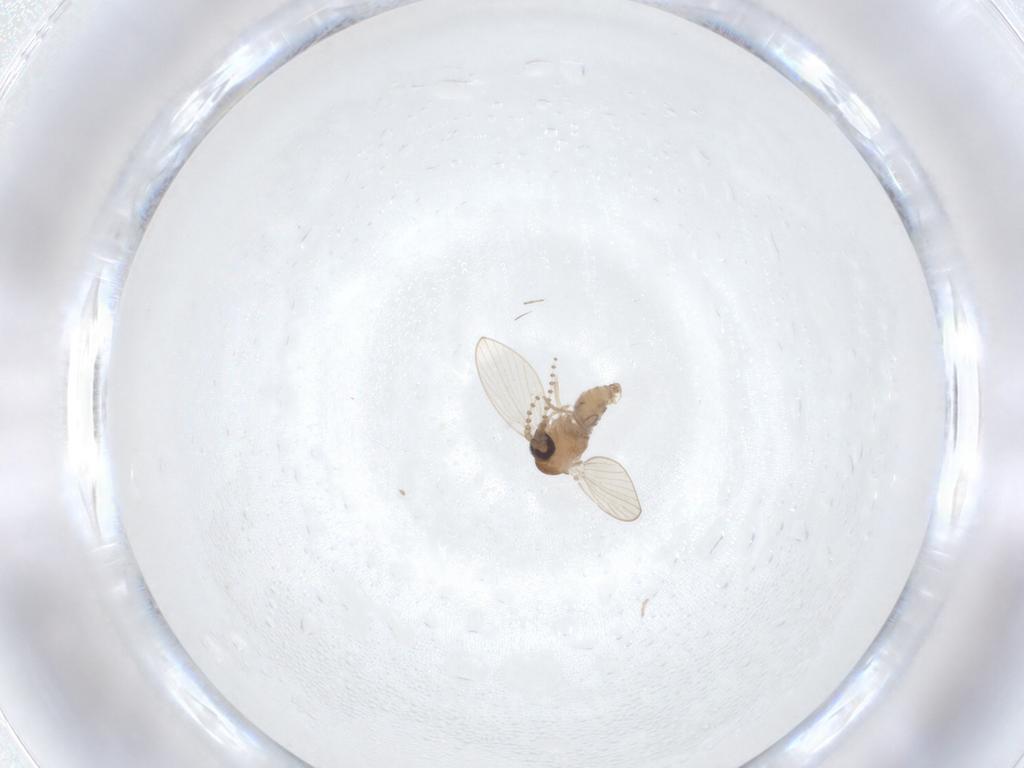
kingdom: Animalia
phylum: Arthropoda
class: Insecta
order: Diptera
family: Psychodidae
